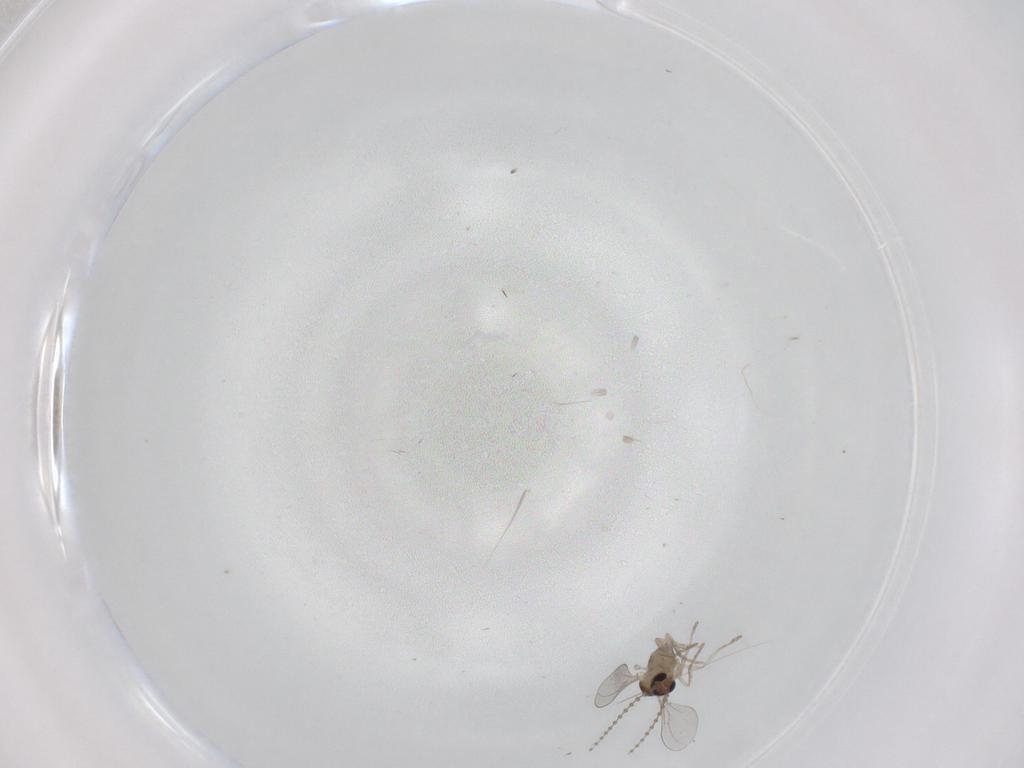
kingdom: Animalia
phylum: Arthropoda
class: Insecta
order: Diptera
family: Cecidomyiidae
